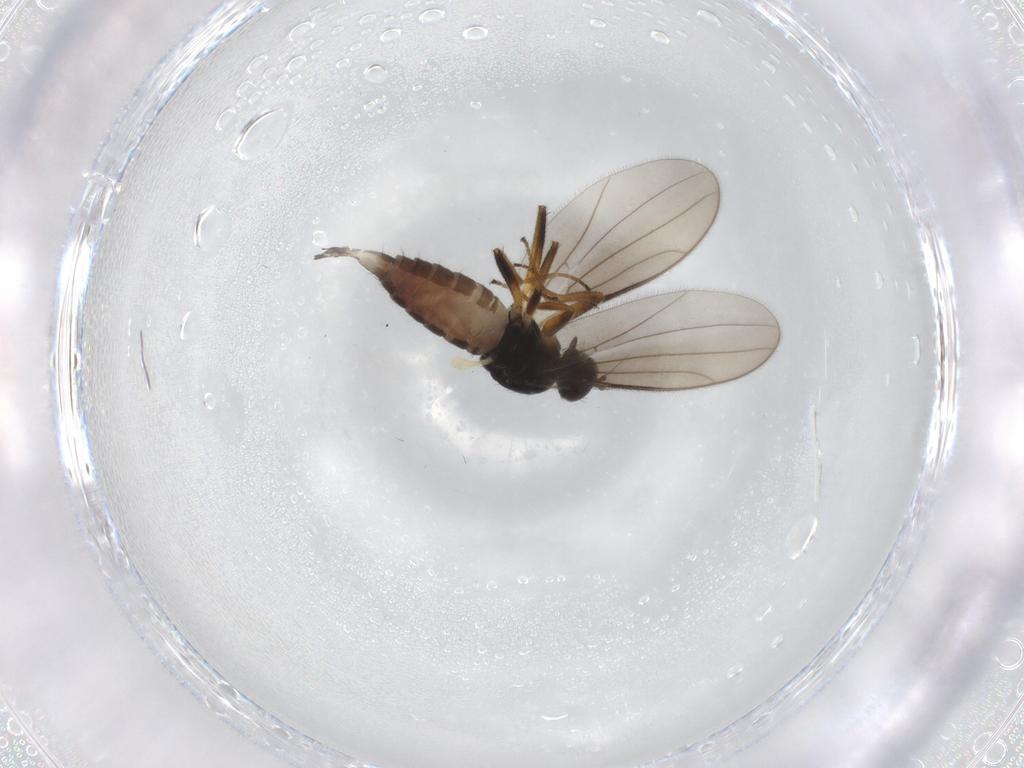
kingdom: Animalia
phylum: Arthropoda
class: Insecta
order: Diptera
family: Hybotidae
